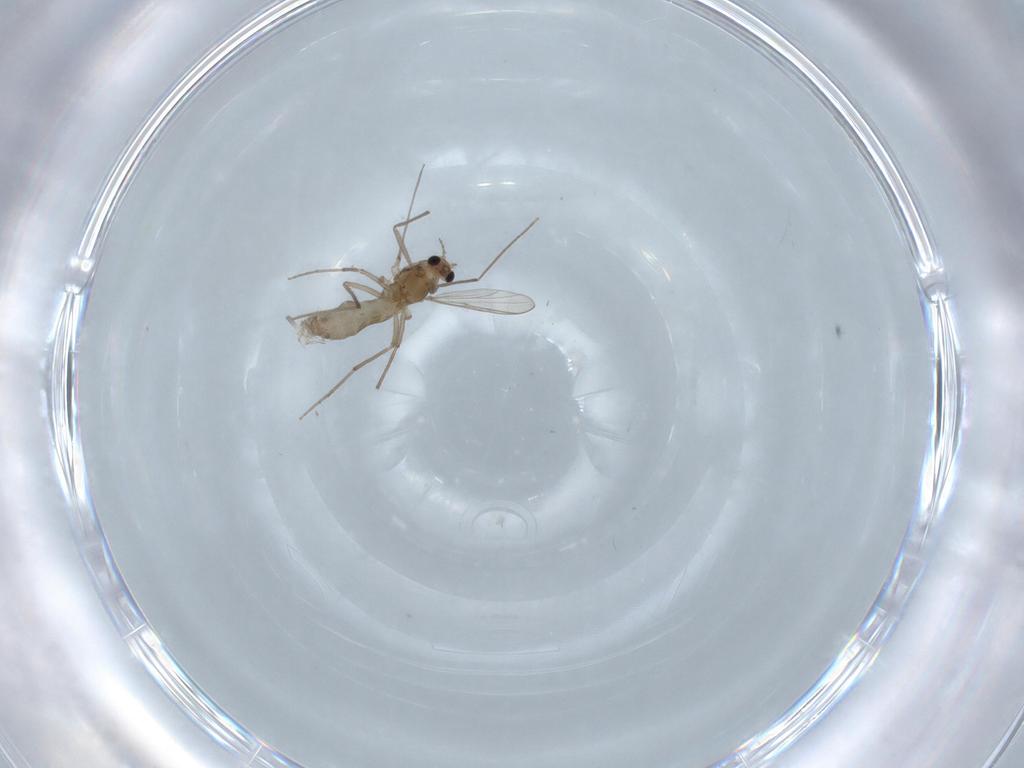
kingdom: Animalia
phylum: Arthropoda
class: Insecta
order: Diptera
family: Chironomidae
